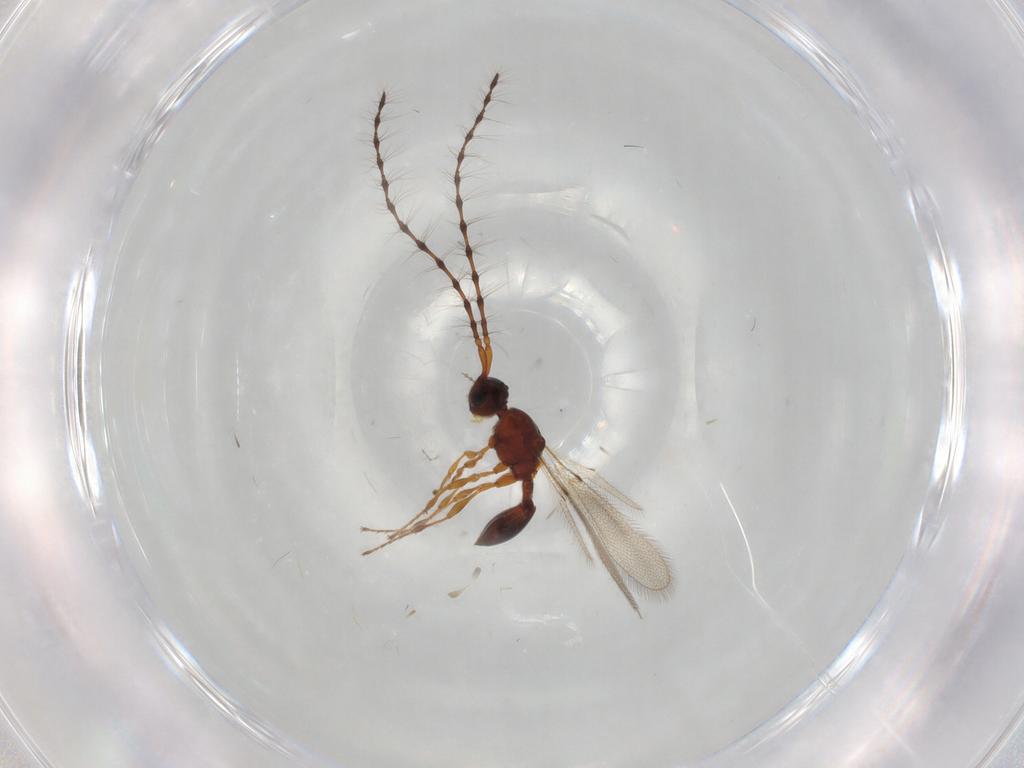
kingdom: Animalia
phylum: Arthropoda
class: Insecta
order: Hymenoptera
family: Diapriidae
